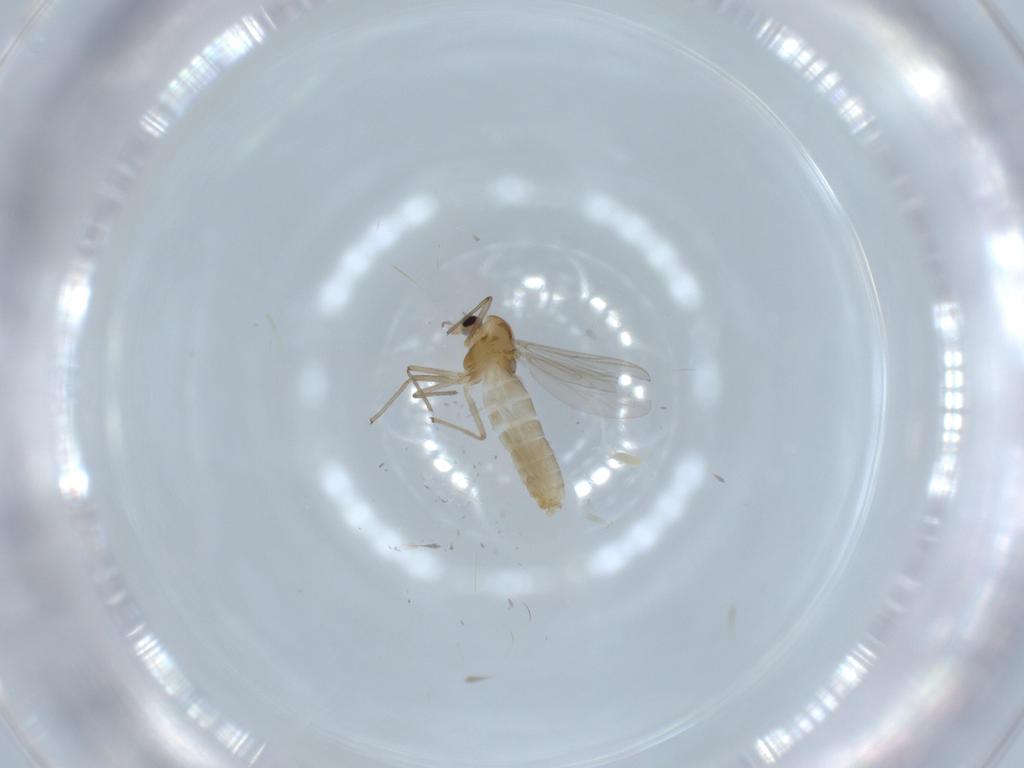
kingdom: Animalia
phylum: Arthropoda
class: Insecta
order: Diptera
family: Chironomidae
